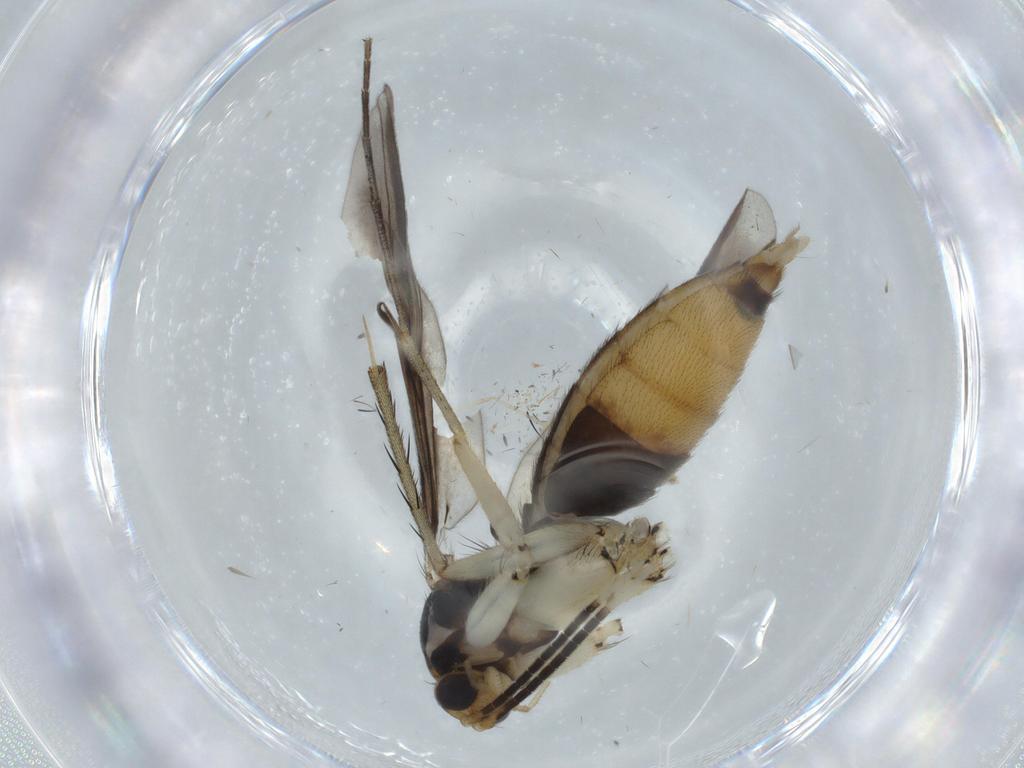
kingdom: Animalia
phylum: Arthropoda
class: Insecta
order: Diptera
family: Mycetophilidae
